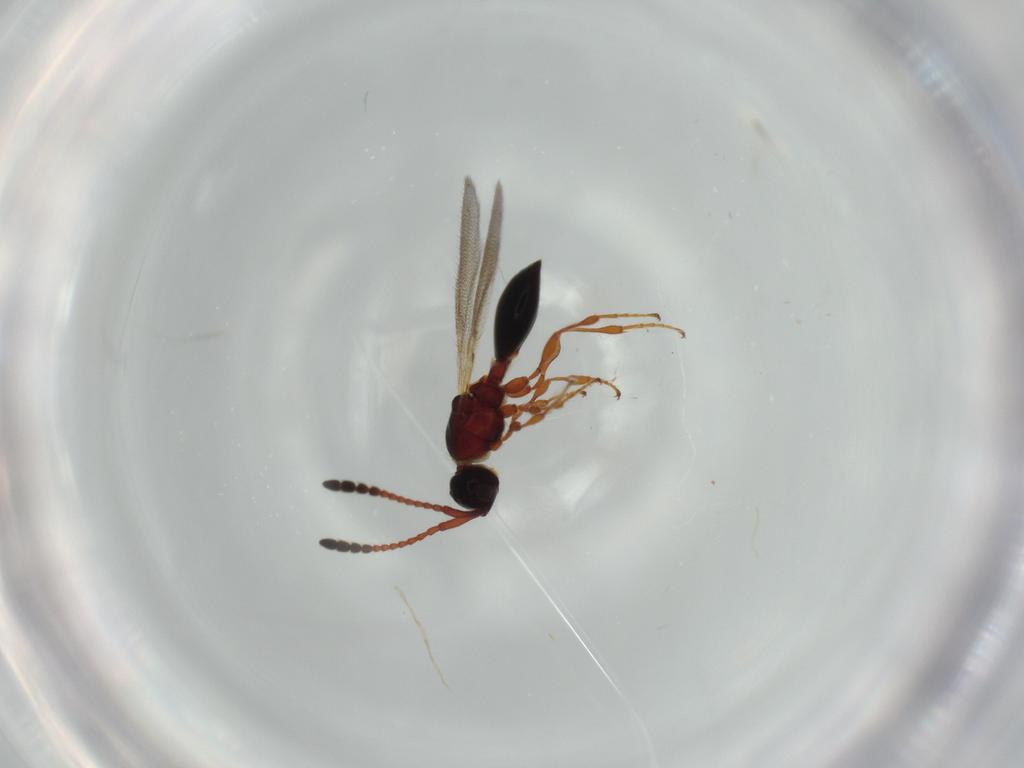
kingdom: Animalia
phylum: Arthropoda
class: Insecta
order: Hymenoptera
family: Diapriidae
